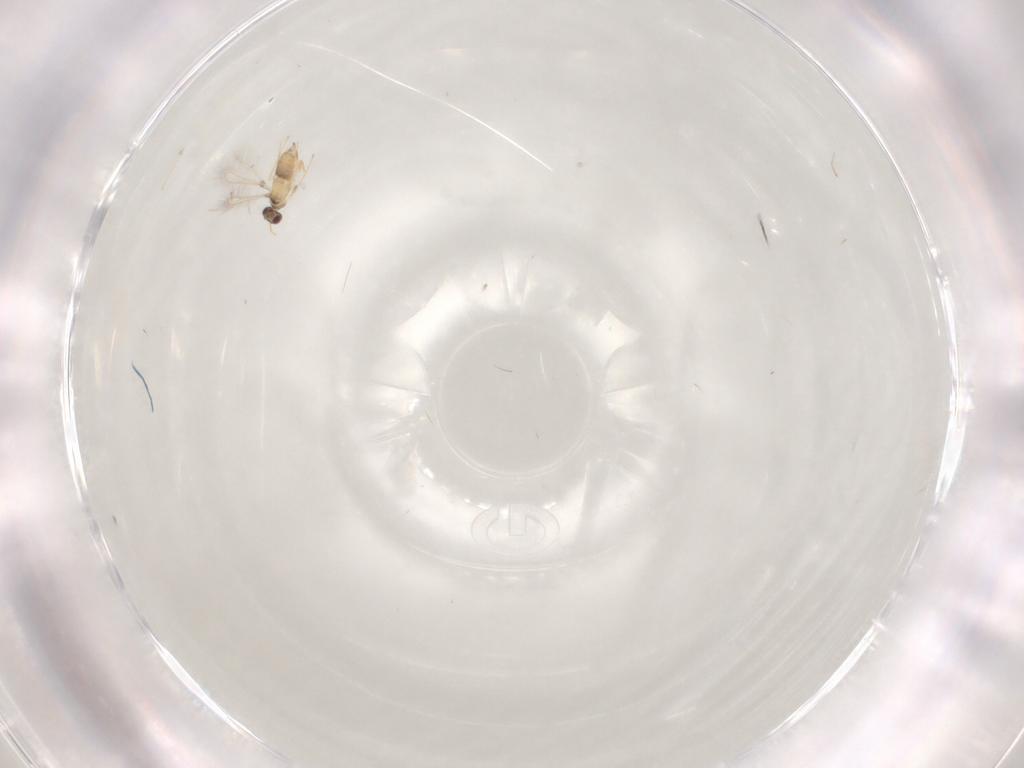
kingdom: Animalia
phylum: Arthropoda
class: Insecta
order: Hymenoptera
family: Mymaridae
